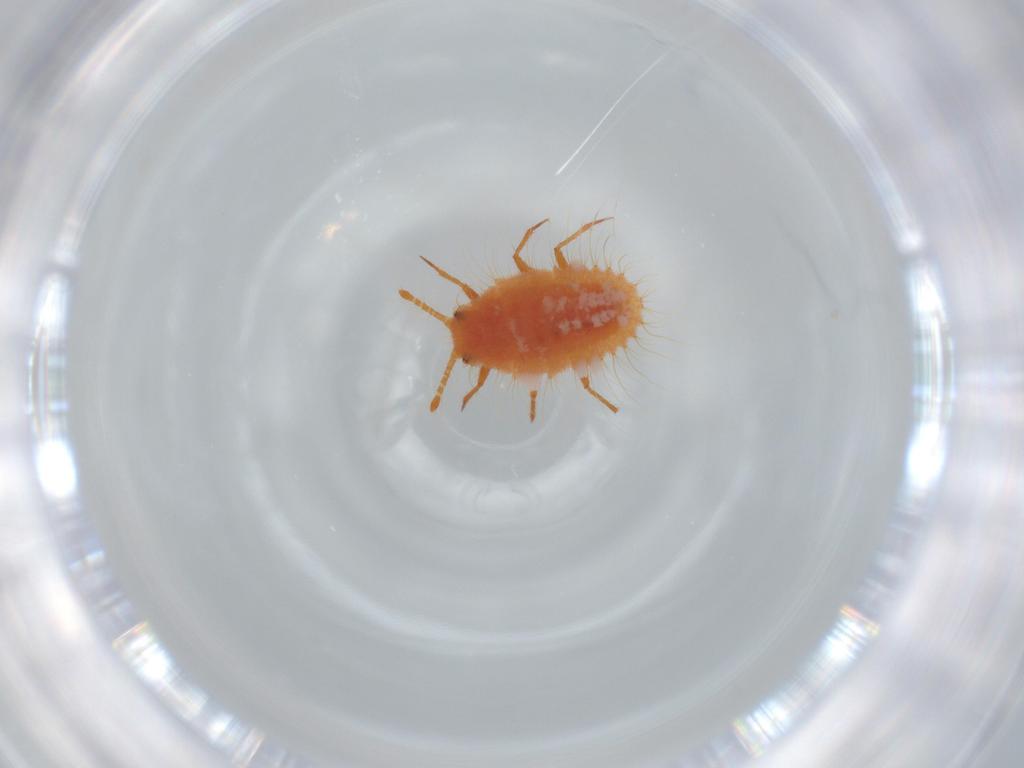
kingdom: Animalia
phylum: Arthropoda
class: Insecta
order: Hemiptera
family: Coccoidea_incertae_sedis
